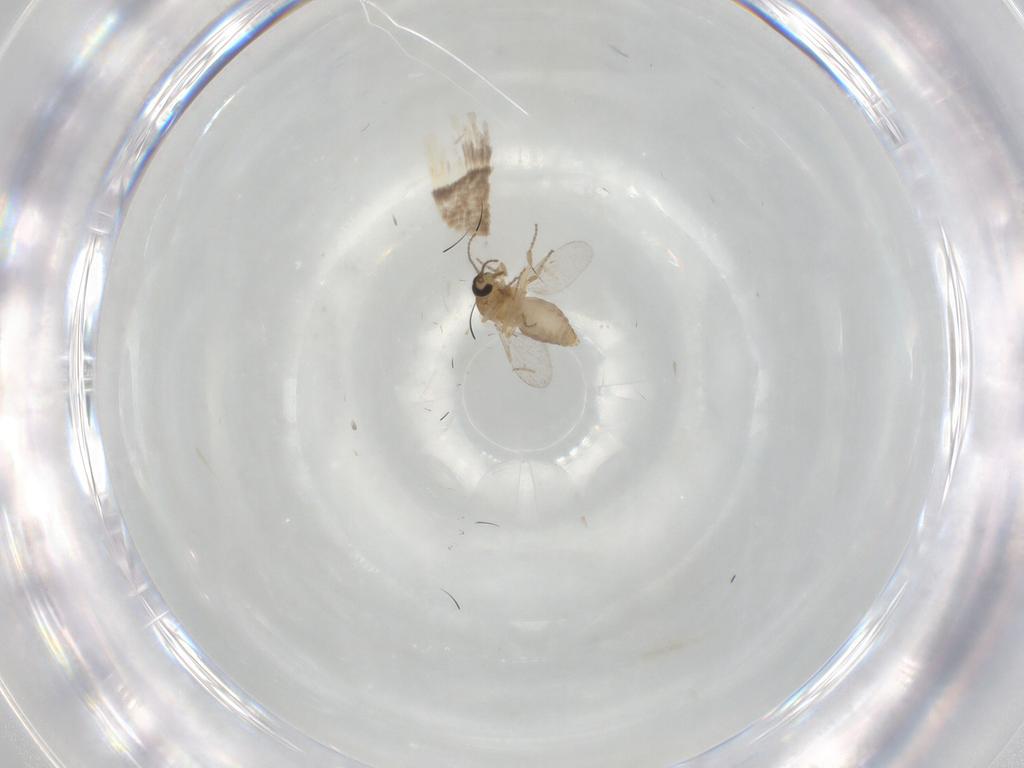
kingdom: Animalia
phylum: Arthropoda
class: Insecta
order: Diptera
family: Ceratopogonidae
